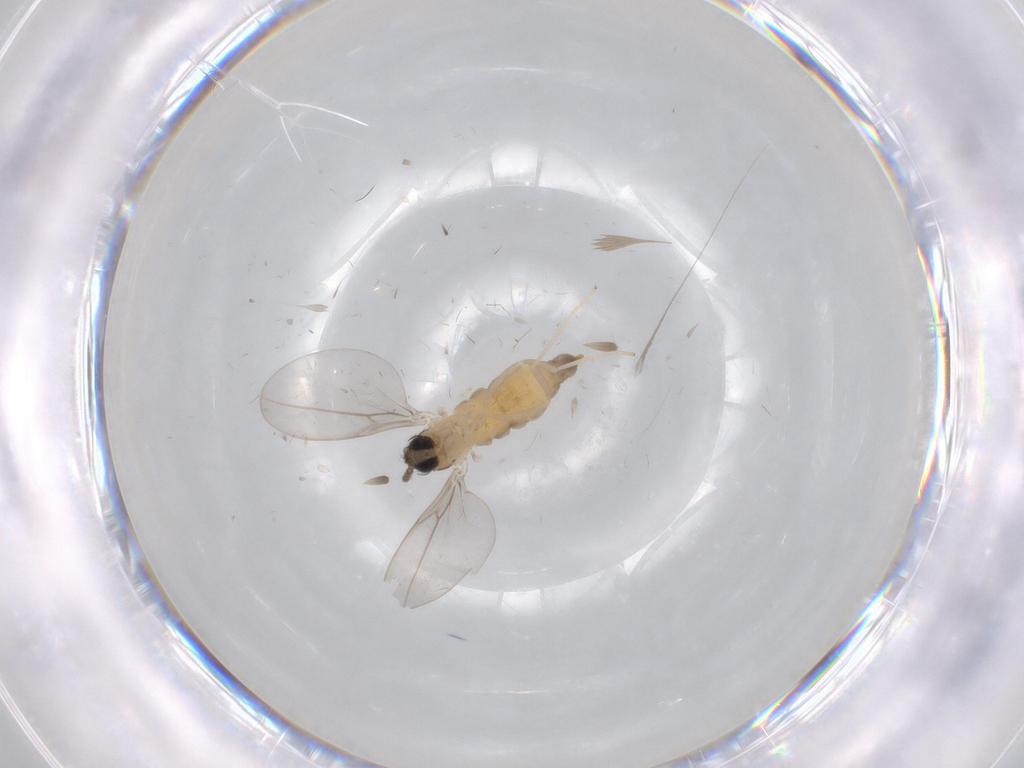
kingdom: Animalia
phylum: Arthropoda
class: Insecta
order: Diptera
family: Cecidomyiidae
